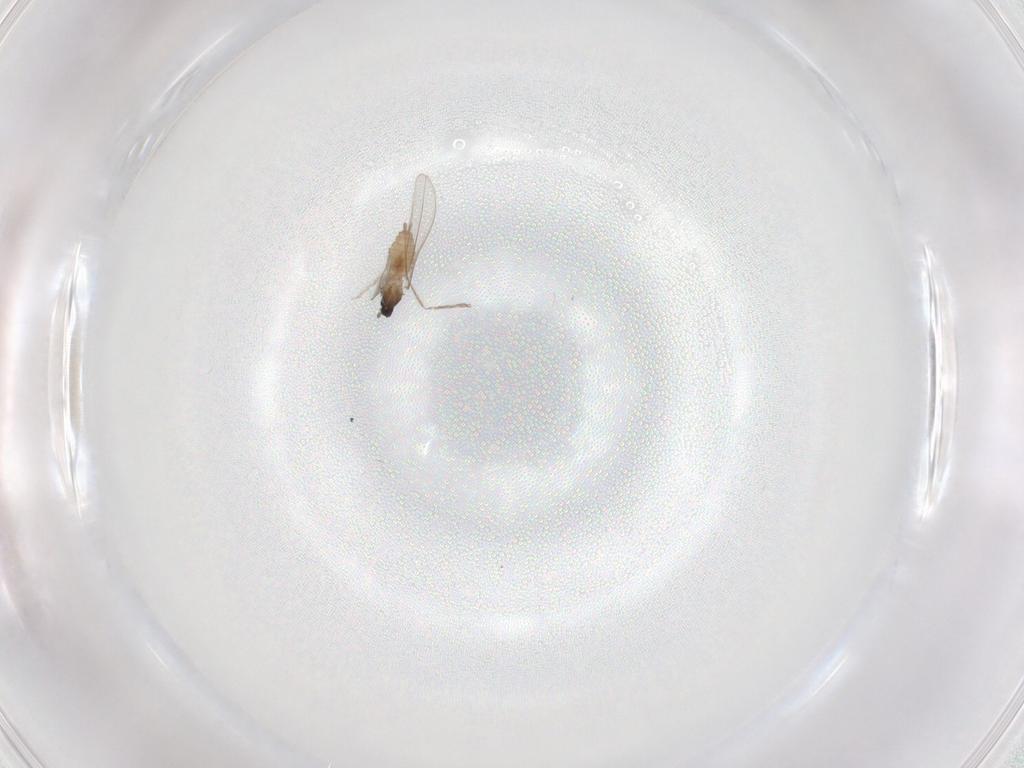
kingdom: Animalia
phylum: Arthropoda
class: Insecta
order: Diptera
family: Cecidomyiidae
